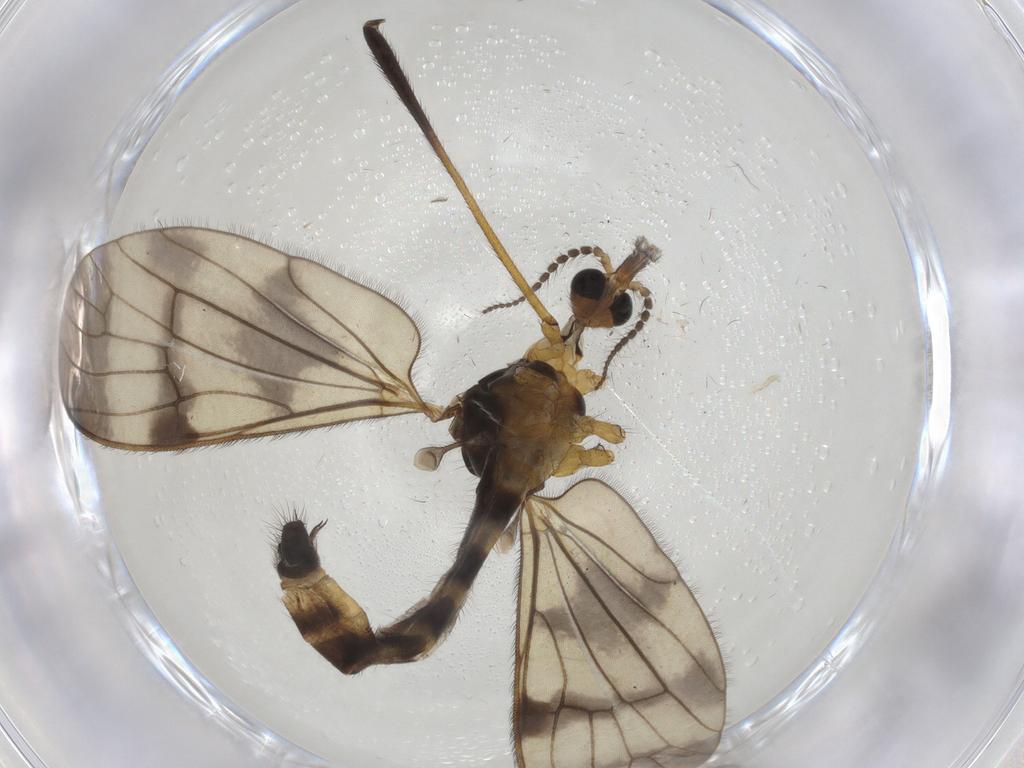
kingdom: Animalia
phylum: Arthropoda
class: Insecta
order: Diptera
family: Limoniidae
